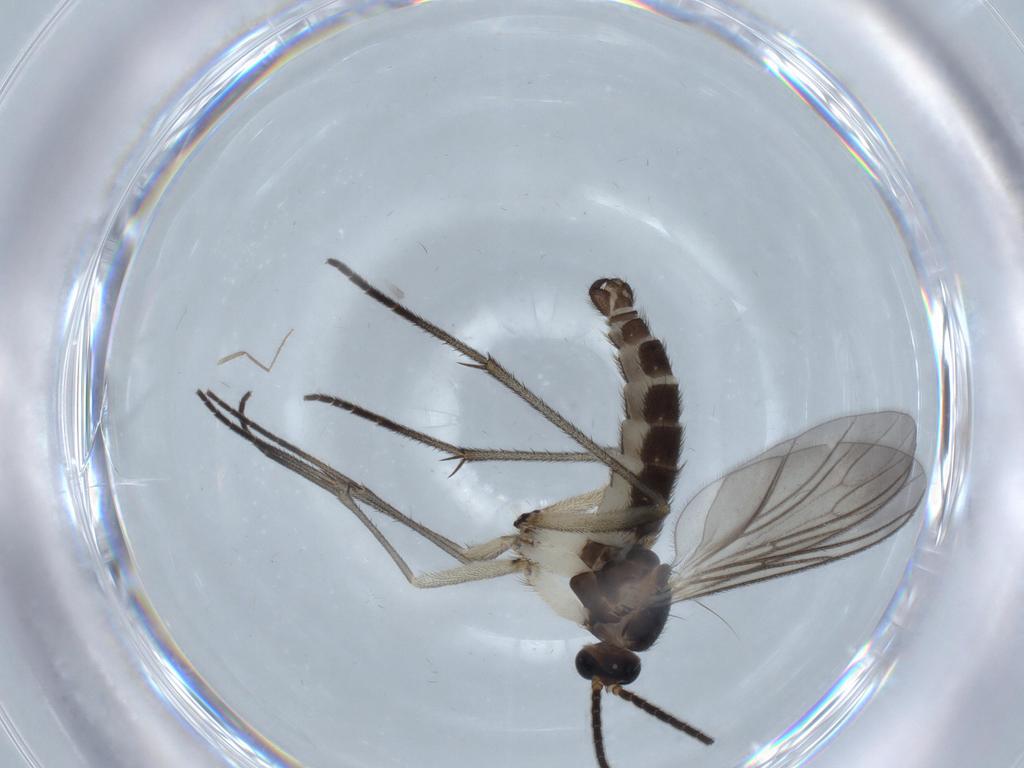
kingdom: Animalia
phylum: Arthropoda
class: Insecta
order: Diptera
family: Sciaridae
